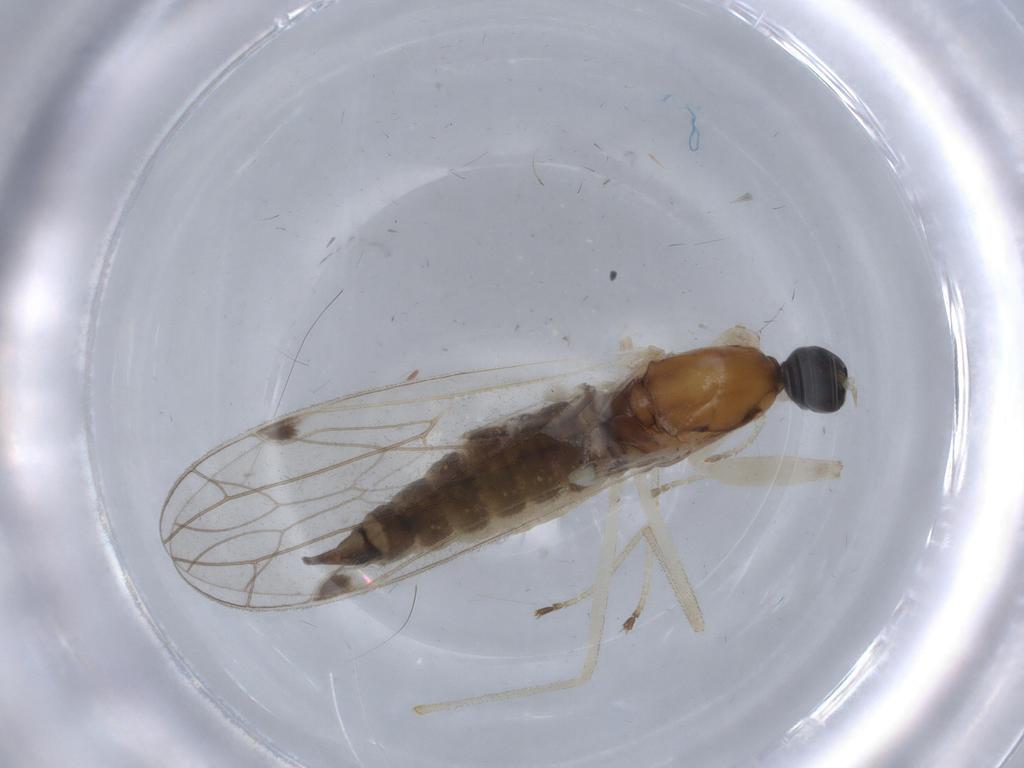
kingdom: Animalia
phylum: Arthropoda
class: Insecta
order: Diptera
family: Empididae
